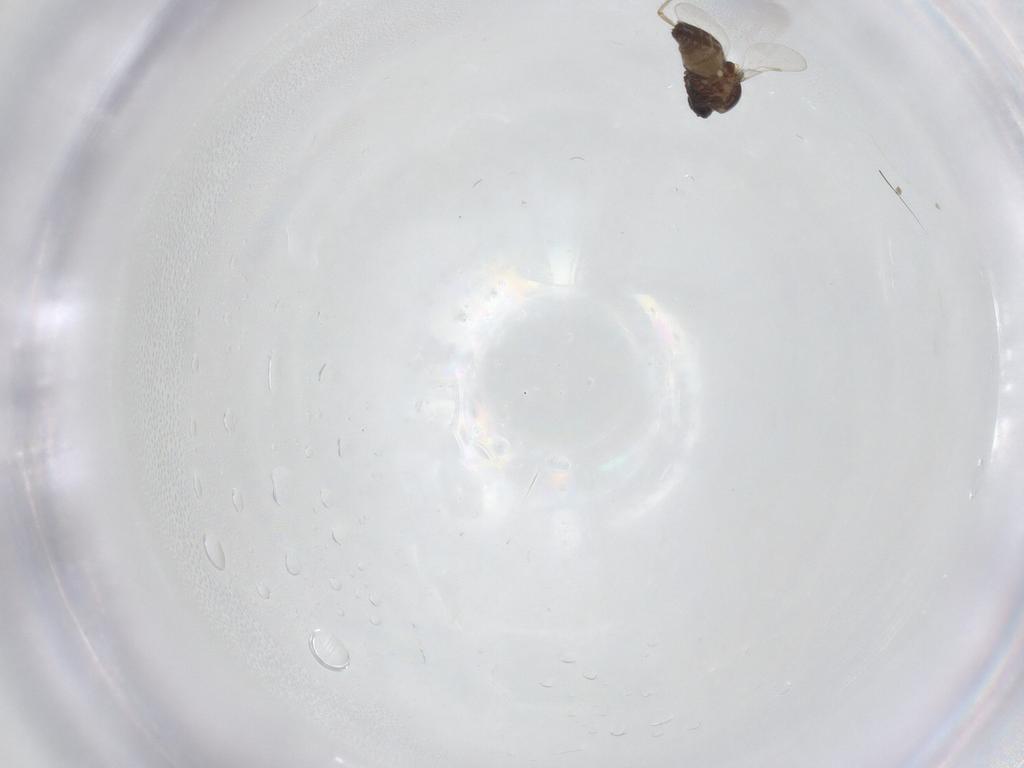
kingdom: Animalia
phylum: Arthropoda
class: Insecta
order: Diptera
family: Ceratopogonidae
